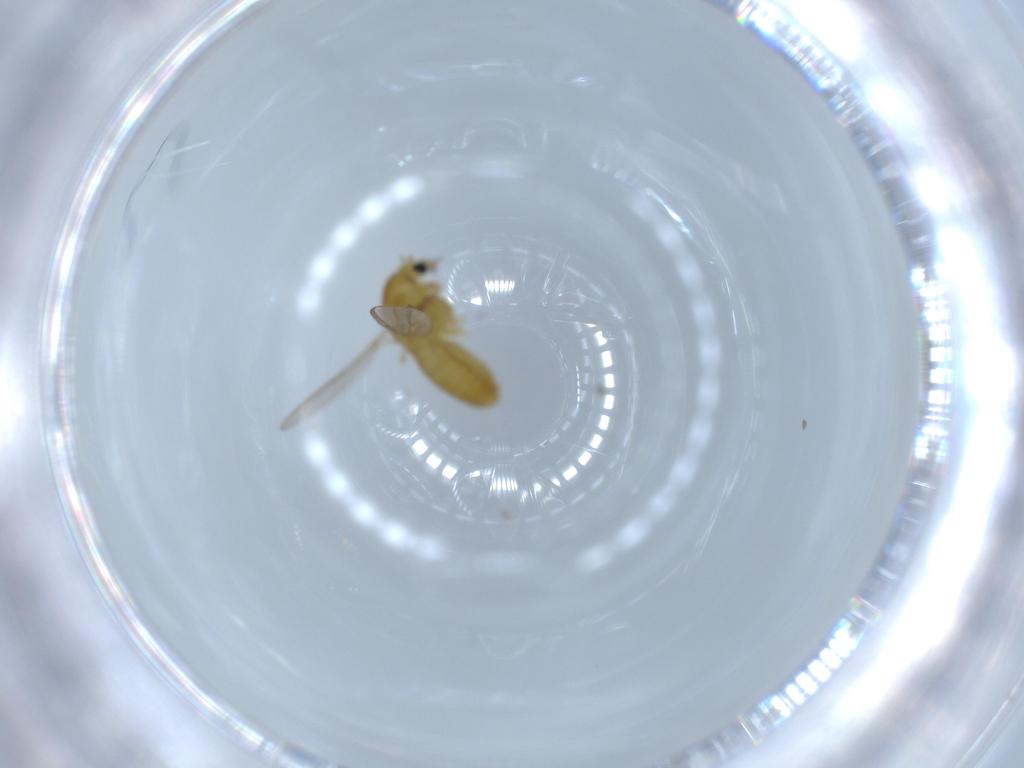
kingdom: Animalia
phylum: Arthropoda
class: Insecta
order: Diptera
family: Chironomidae
